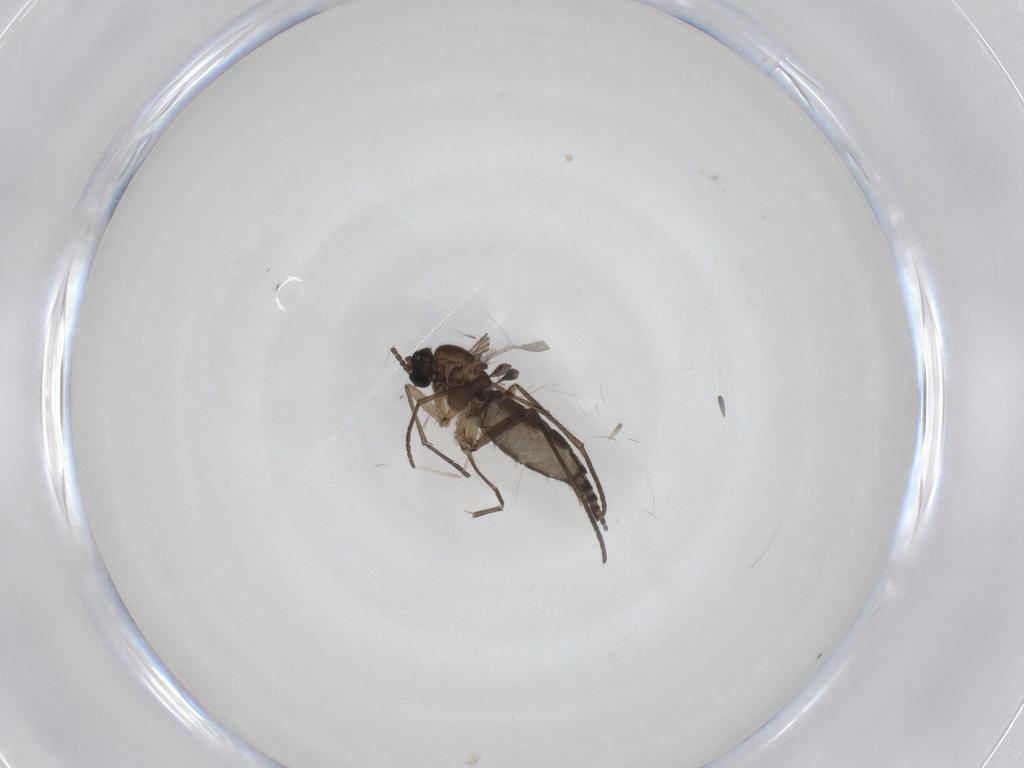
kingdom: Animalia
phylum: Arthropoda
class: Insecta
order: Diptera
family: Sciaridae
